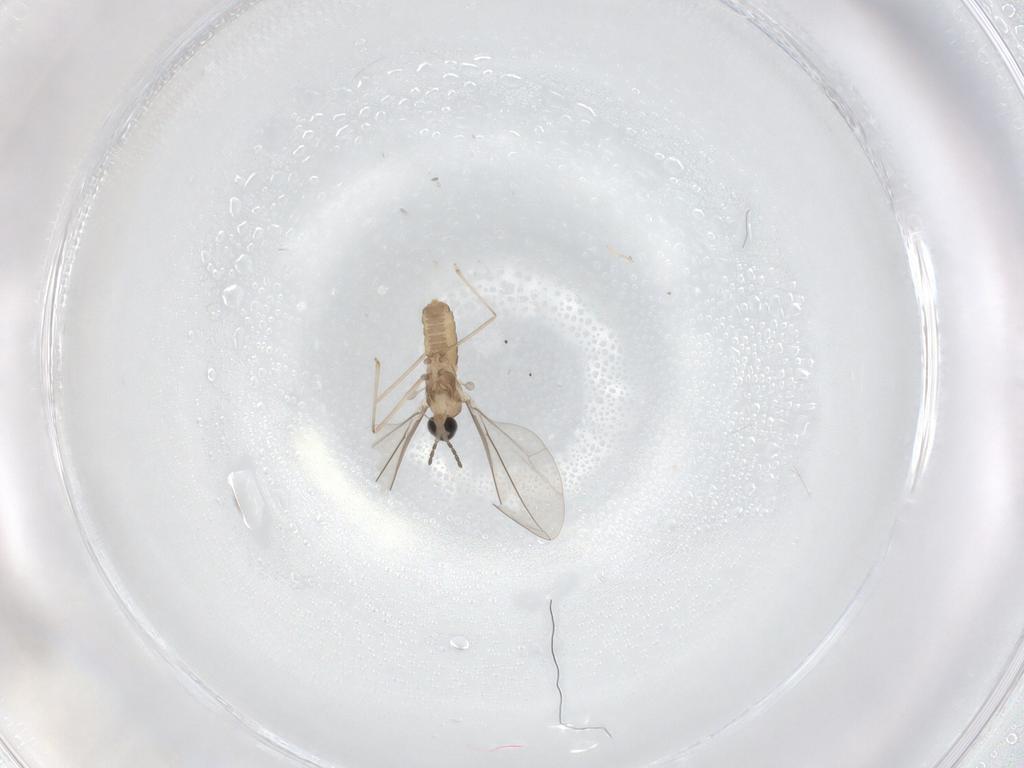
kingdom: Animalia
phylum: Arthropoda
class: Insecta
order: Diptera
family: Cecidomyiidae
